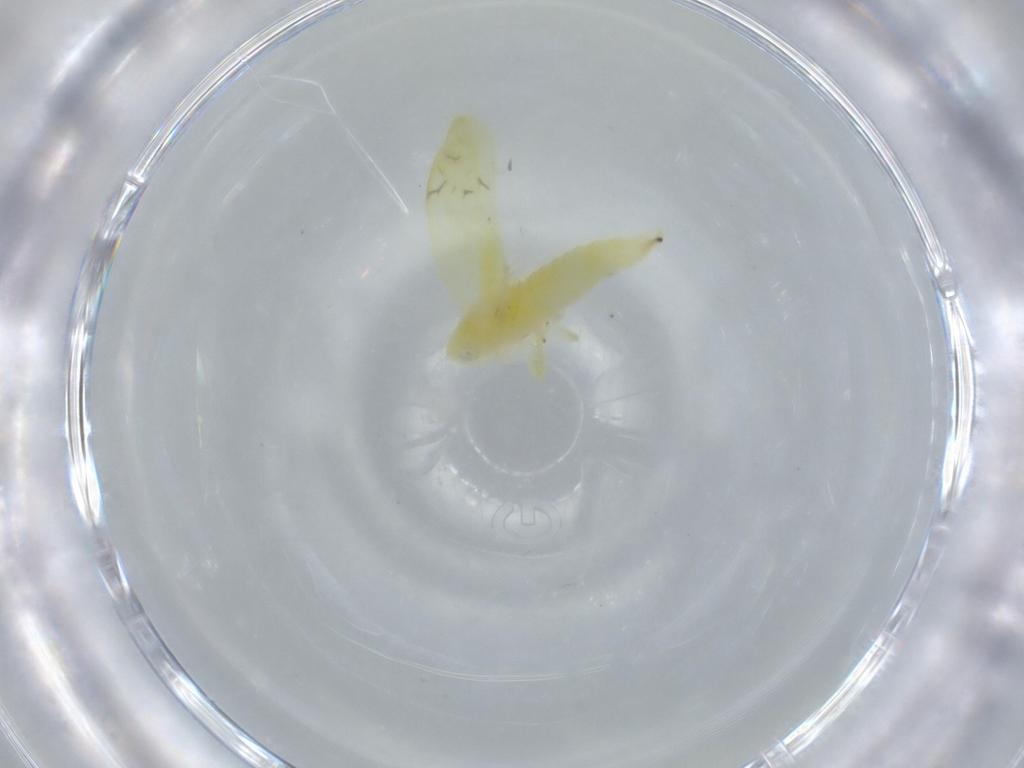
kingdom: Animalia
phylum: Arthropoda
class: Insecta
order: Hemiptera
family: Cicadellidae
